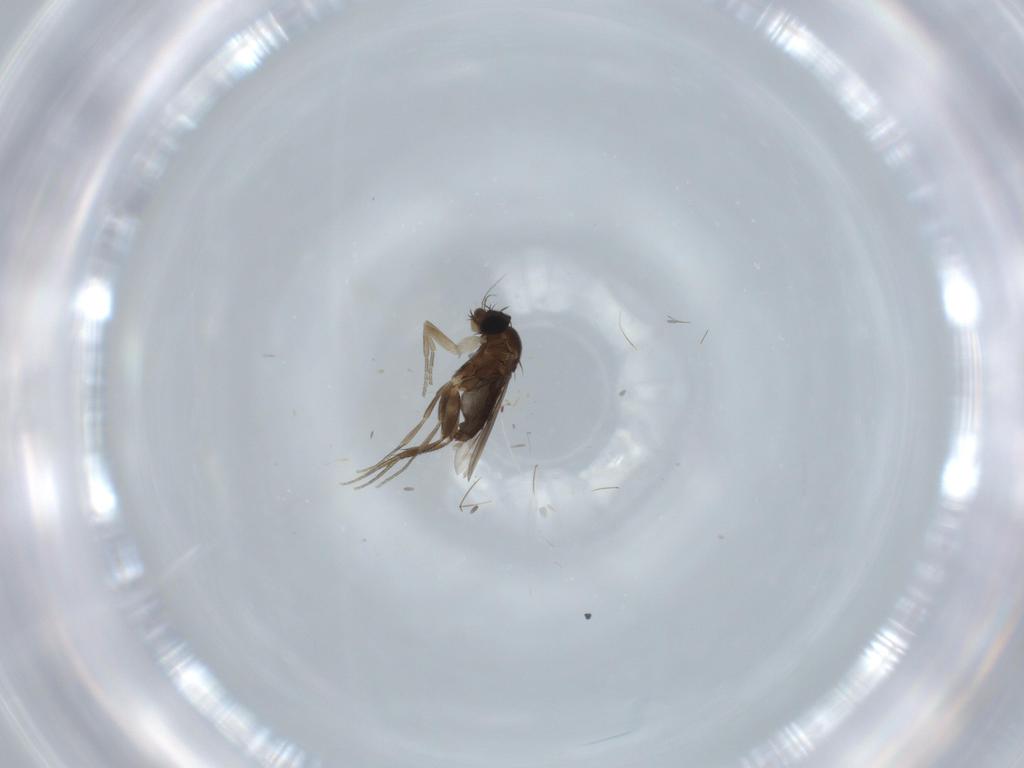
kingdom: Animalia
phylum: Arthropoda
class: Insecta
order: Diptera
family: Phoridae
